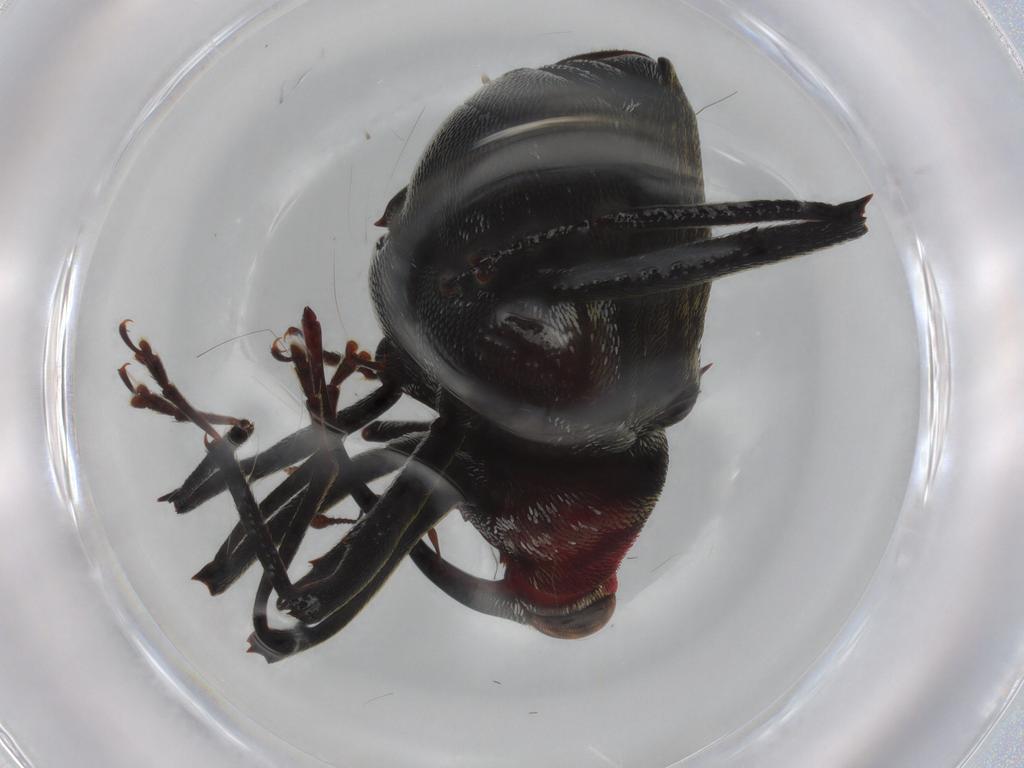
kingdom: Animalia
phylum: Arthropoda
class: Insecta
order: Coleoptera
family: Curculionidae
